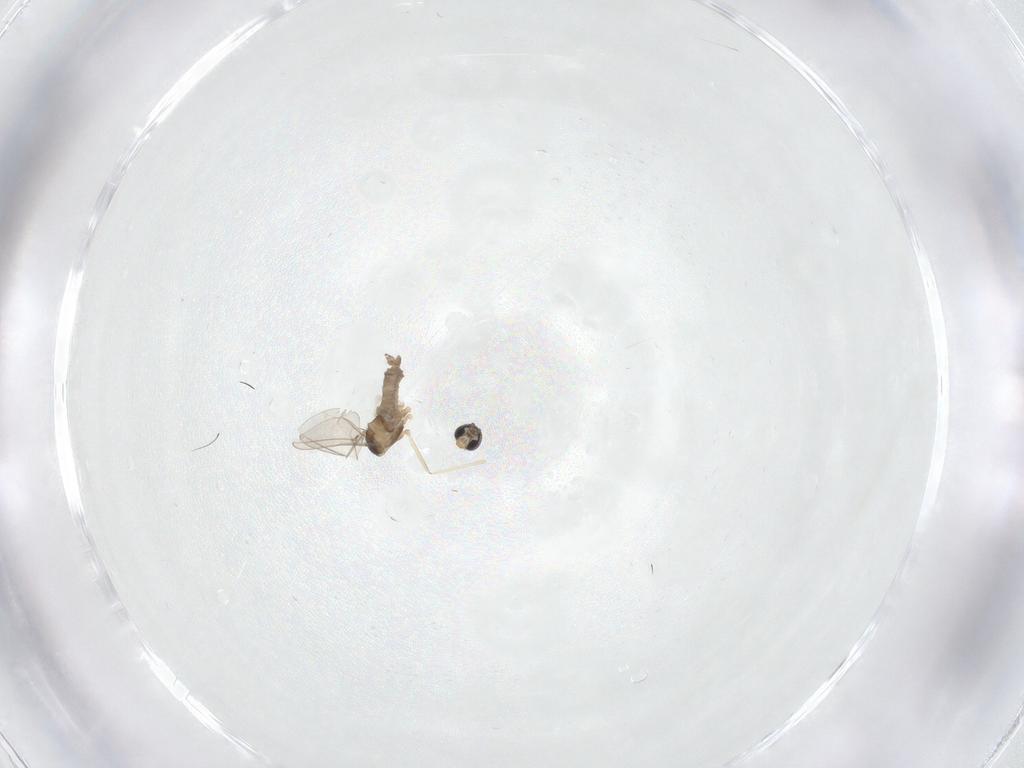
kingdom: Animalia
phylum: Arthropoda
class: Insecta
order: Diptera
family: Cecidomyiidae
